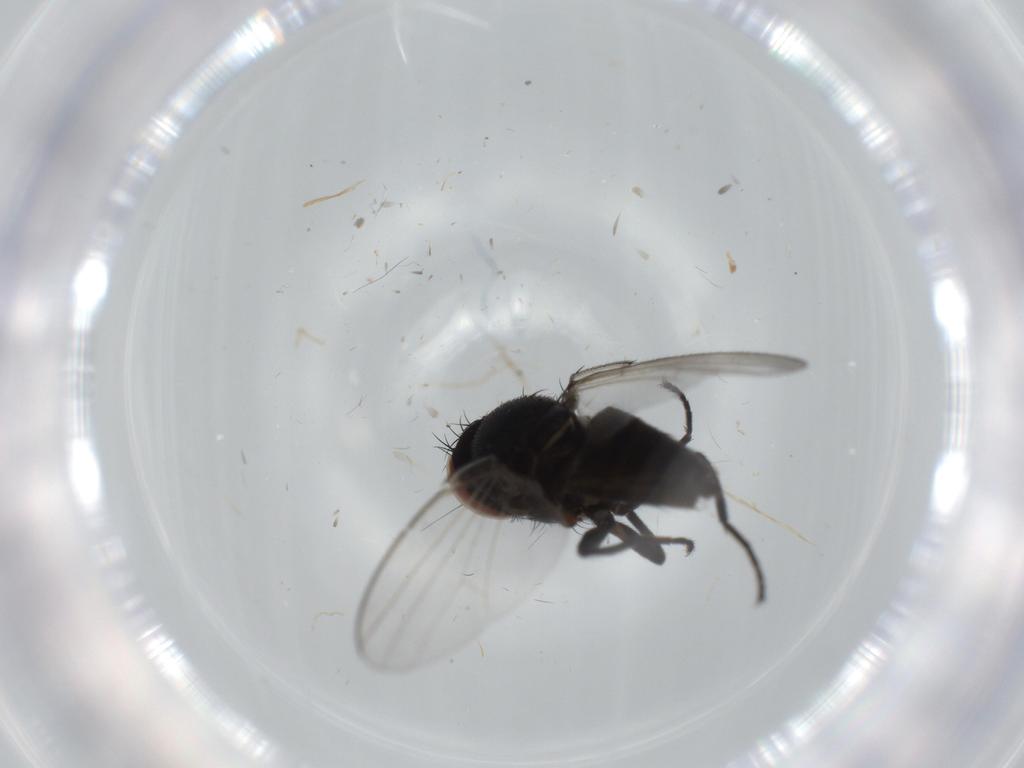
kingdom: Animalia
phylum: Arthropoda
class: Insecta
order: Diptera
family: Milichiidae
